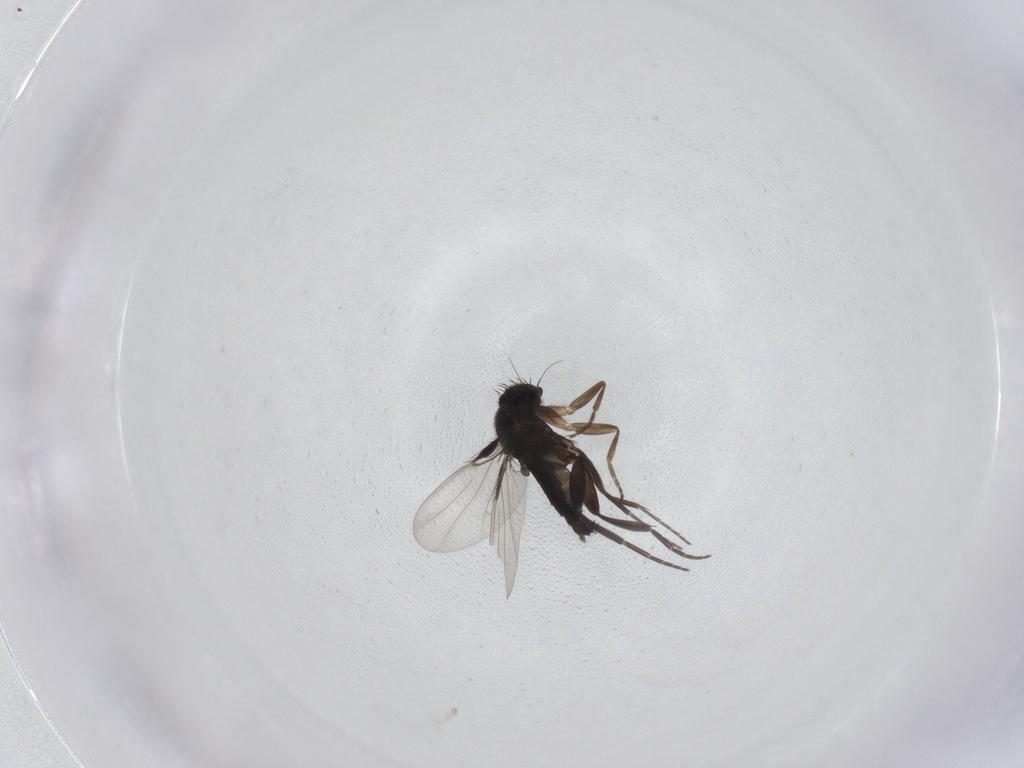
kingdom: Animalia
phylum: Arthropoda
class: Insecta
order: Diptera
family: Phoridae
